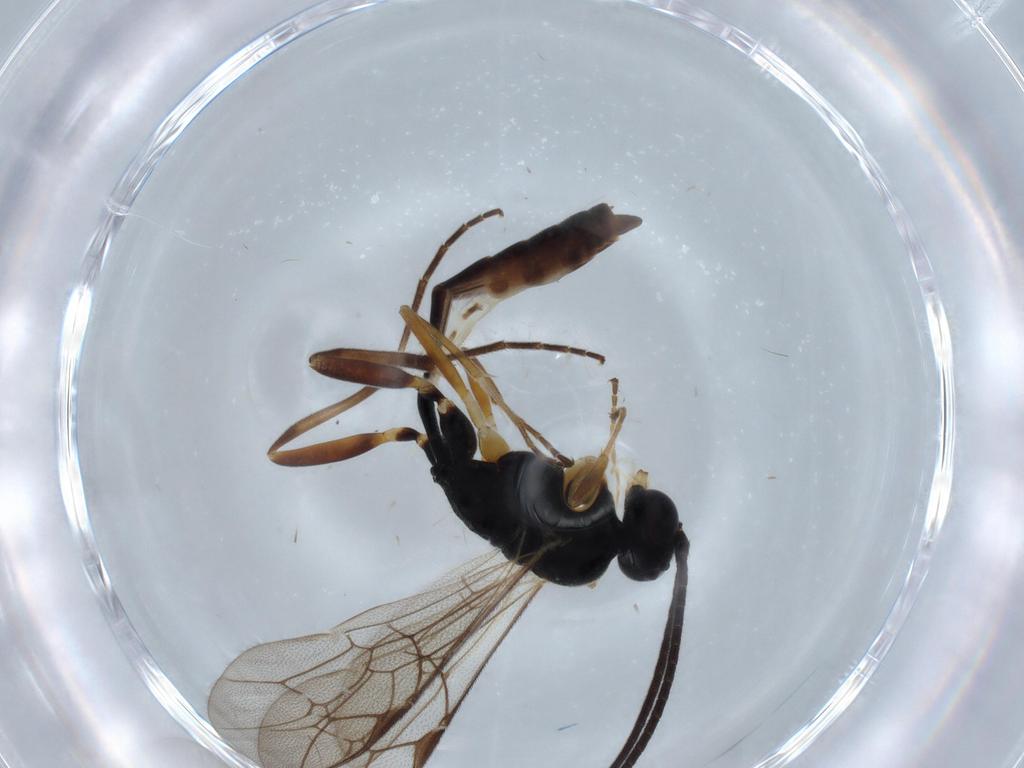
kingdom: Animalia
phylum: Arthropoda
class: Insecta
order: Hymenoptera
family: Ichneumonidae
